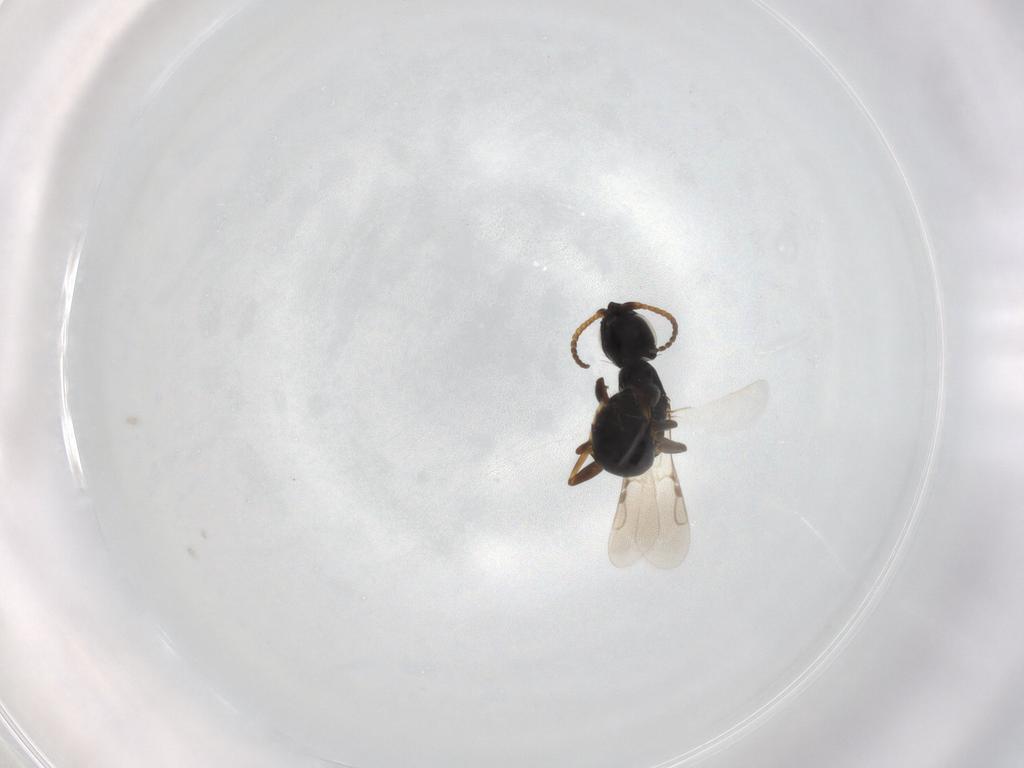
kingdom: Animalia
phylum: Arthropoda
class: Insecta
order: Hymenoptera
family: Bethylidae
